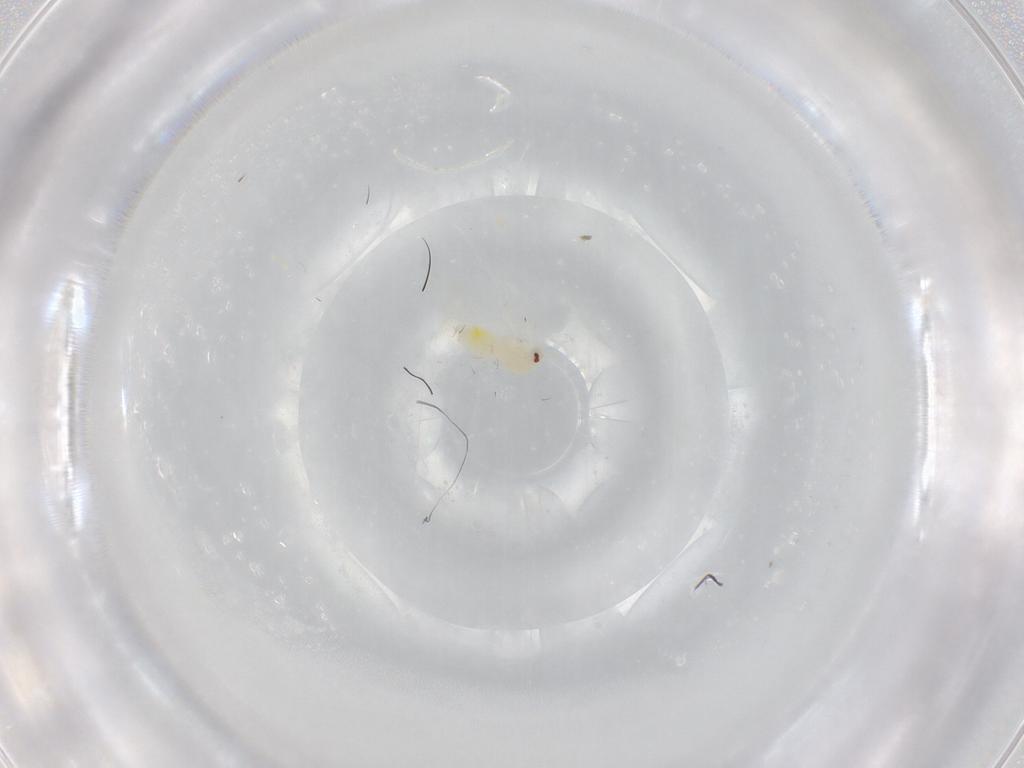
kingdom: Animalia
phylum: Arthropoda
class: Insecta
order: Hemiptera
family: Aleyrodidae
